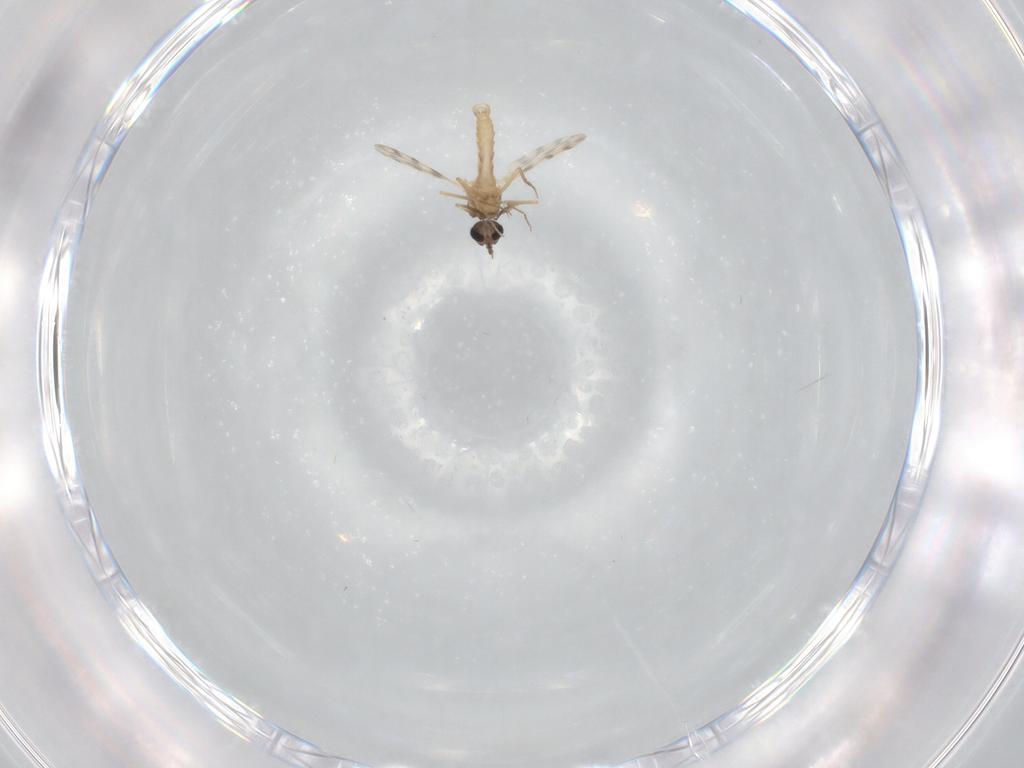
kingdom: Animalia
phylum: Arthropoda
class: Insecta
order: Diptera
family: Ceratopogonidae
